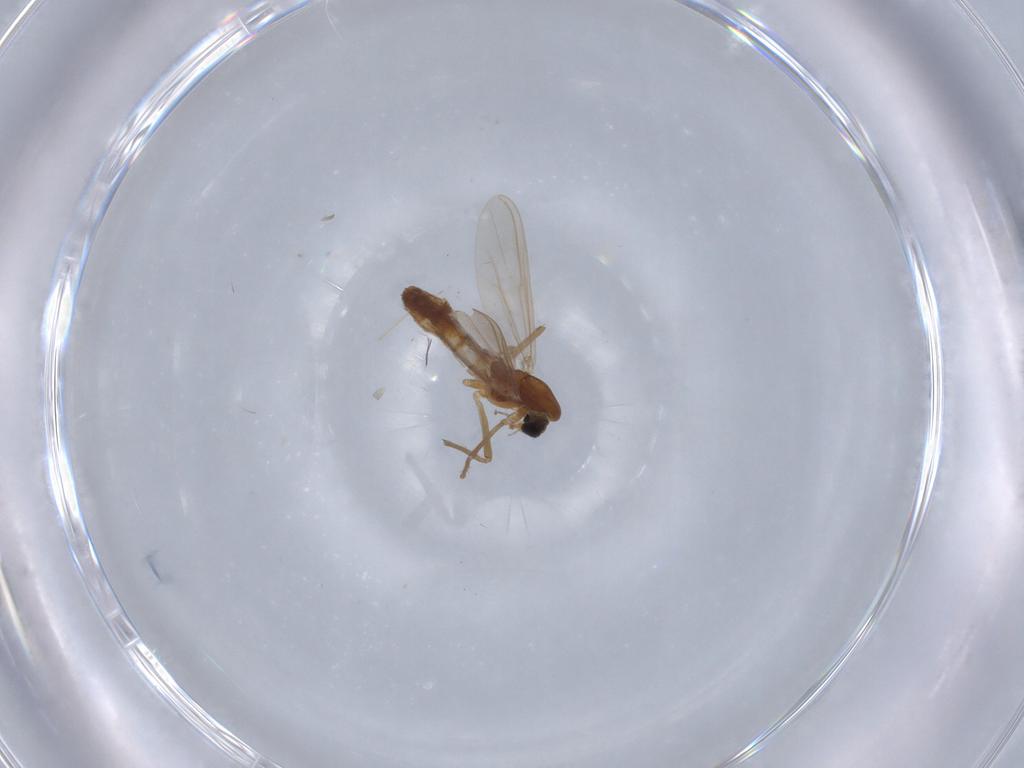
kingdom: Animalia
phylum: Arthropoda
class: Insecta
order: Diptera
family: Chironomidae
